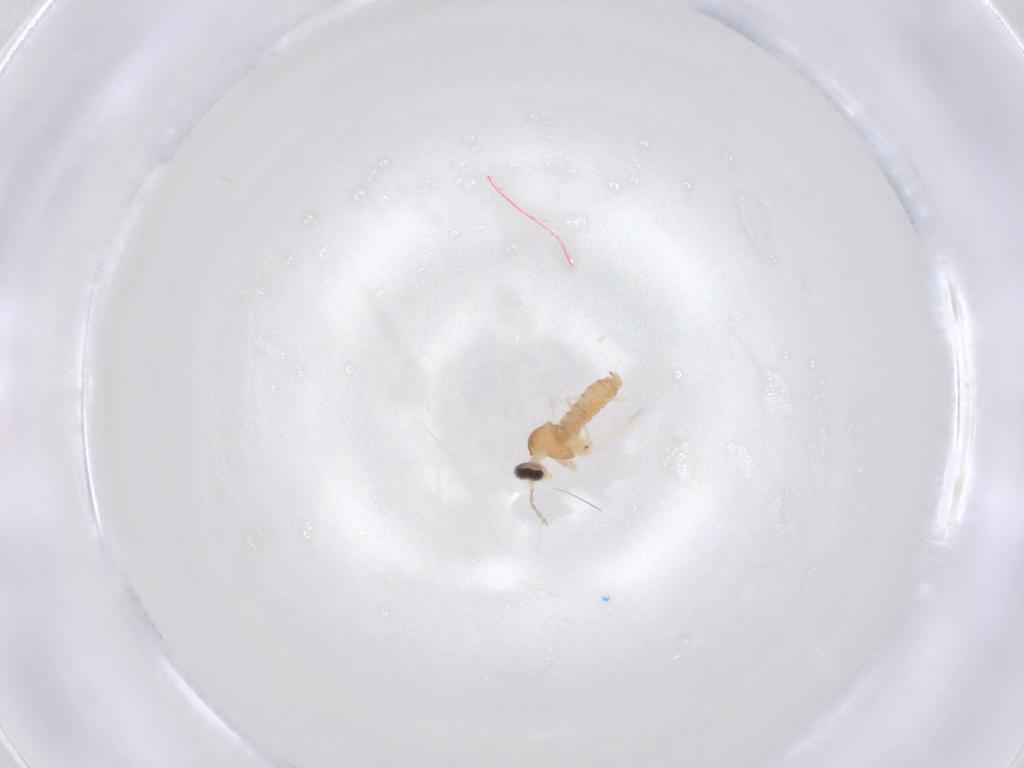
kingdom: Animalia
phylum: Arthropoda
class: Insecta
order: Diptera
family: Cecidomyiidae
